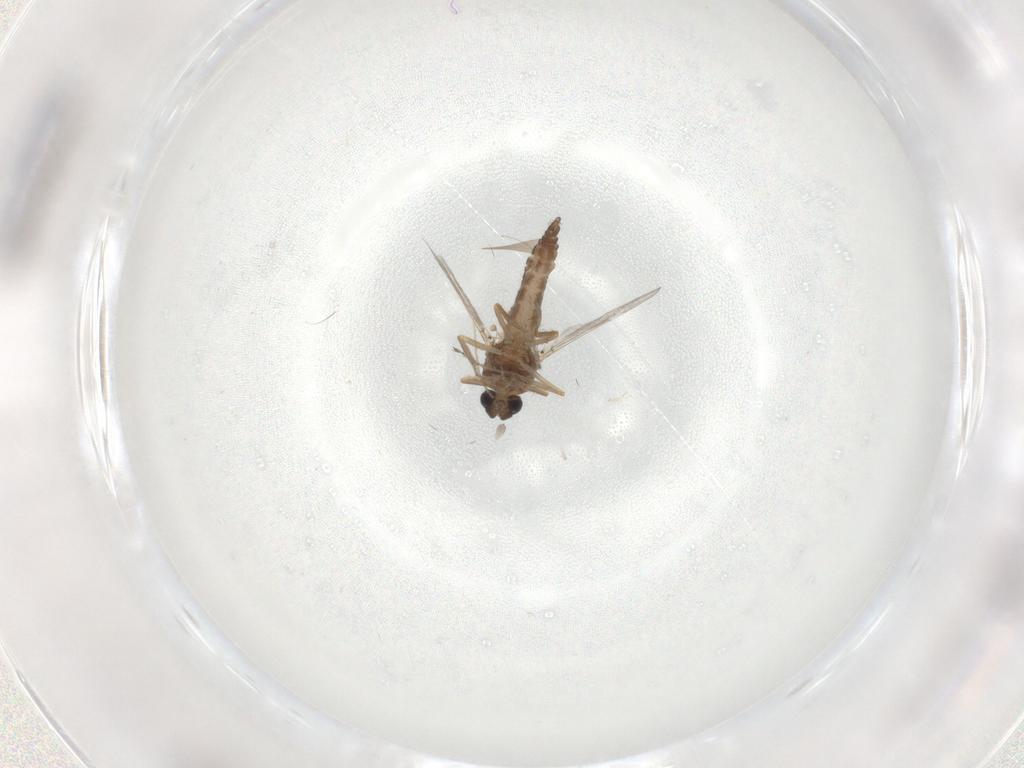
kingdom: Animalia
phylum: Arthropoda
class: Insecta
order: Diptera
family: Ceratopogonidae
